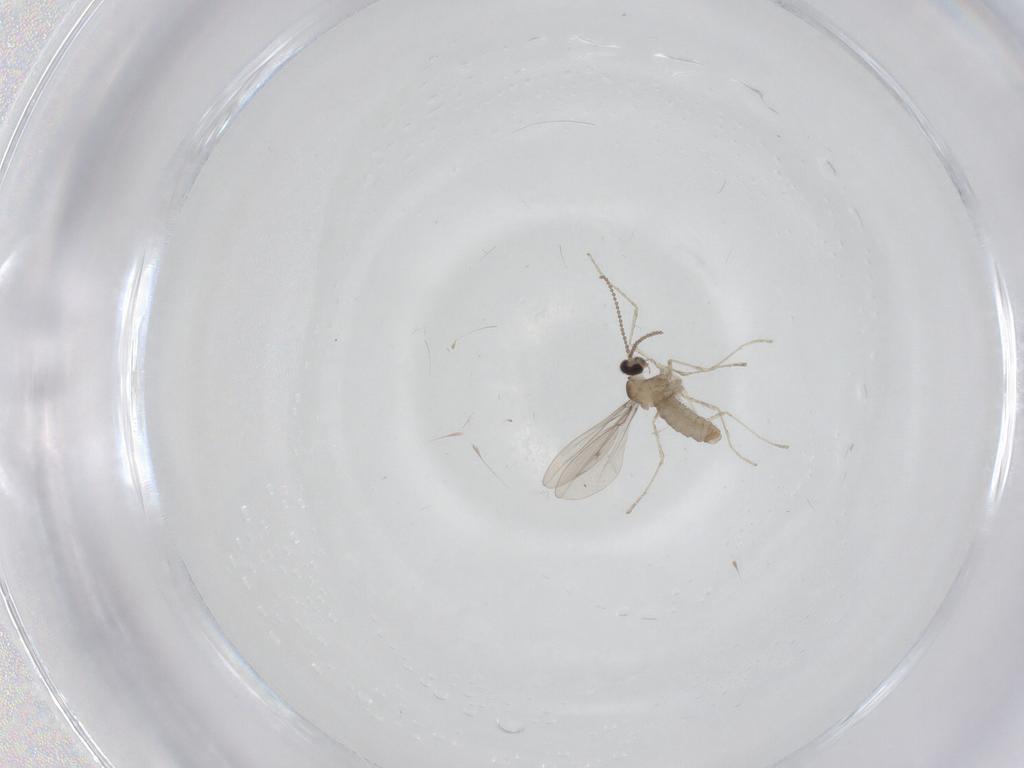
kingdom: Animalia
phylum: Arthropoda
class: Insecta
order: Diptera
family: Cecidomyiidae
